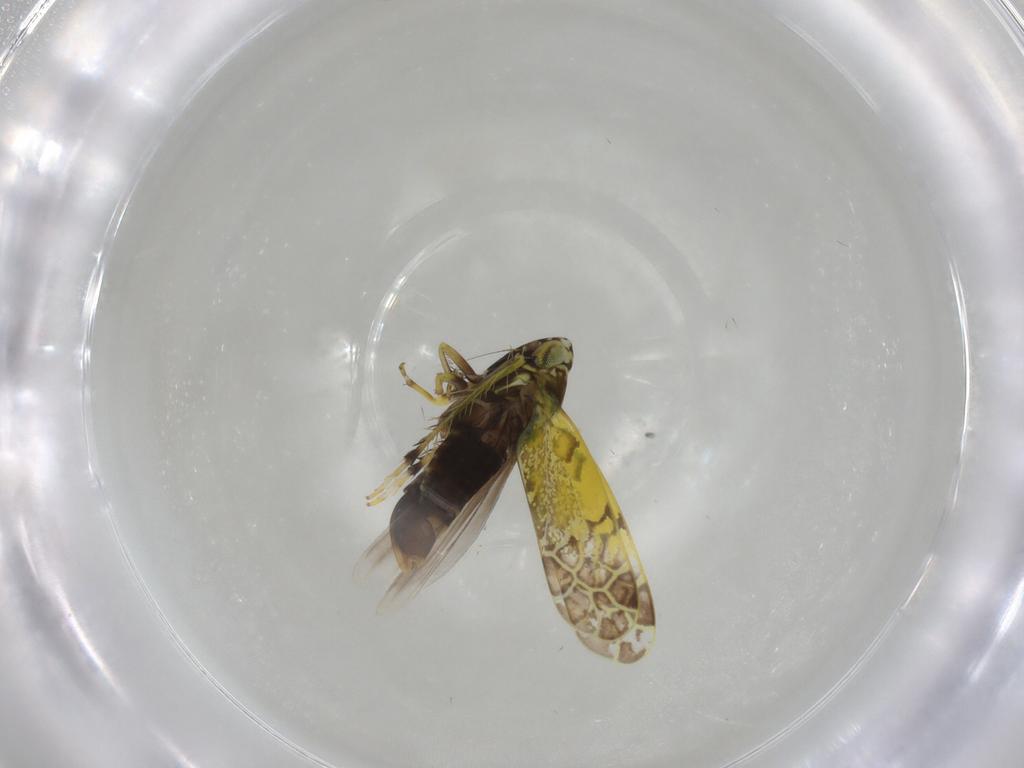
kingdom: Animalia
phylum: Arthropoda
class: Insecta
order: Hemiptera
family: Cicadellidae
